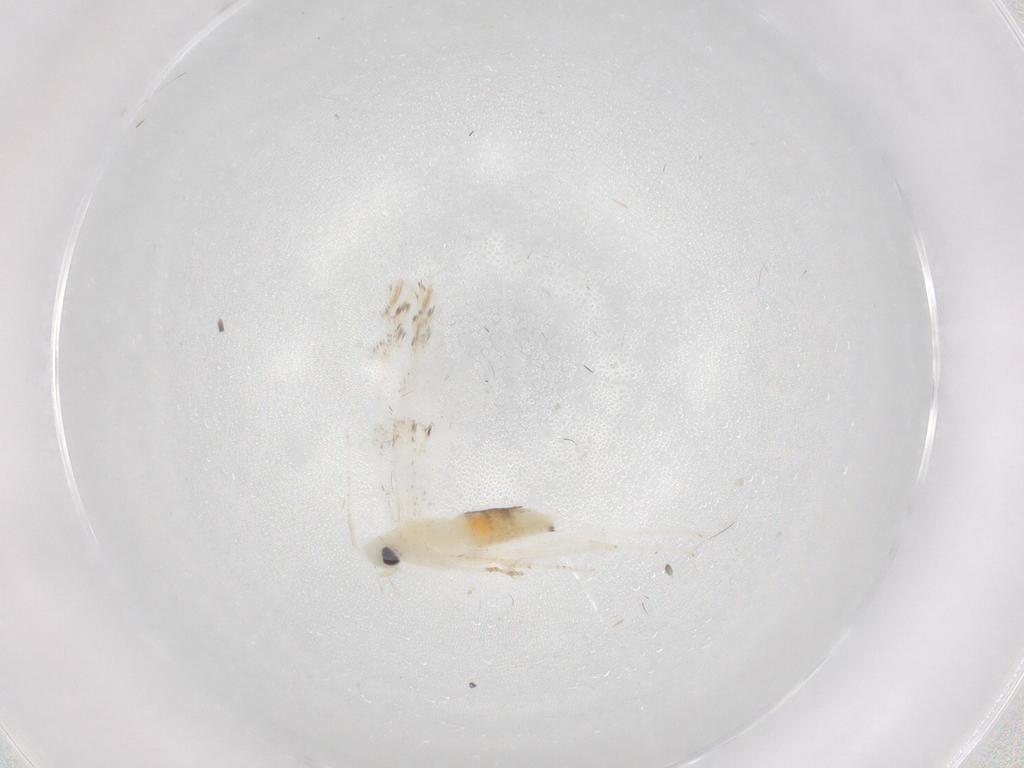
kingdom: Animalia
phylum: Arthropoda
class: Insecta
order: Lepidoptera
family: Gracillariidae
